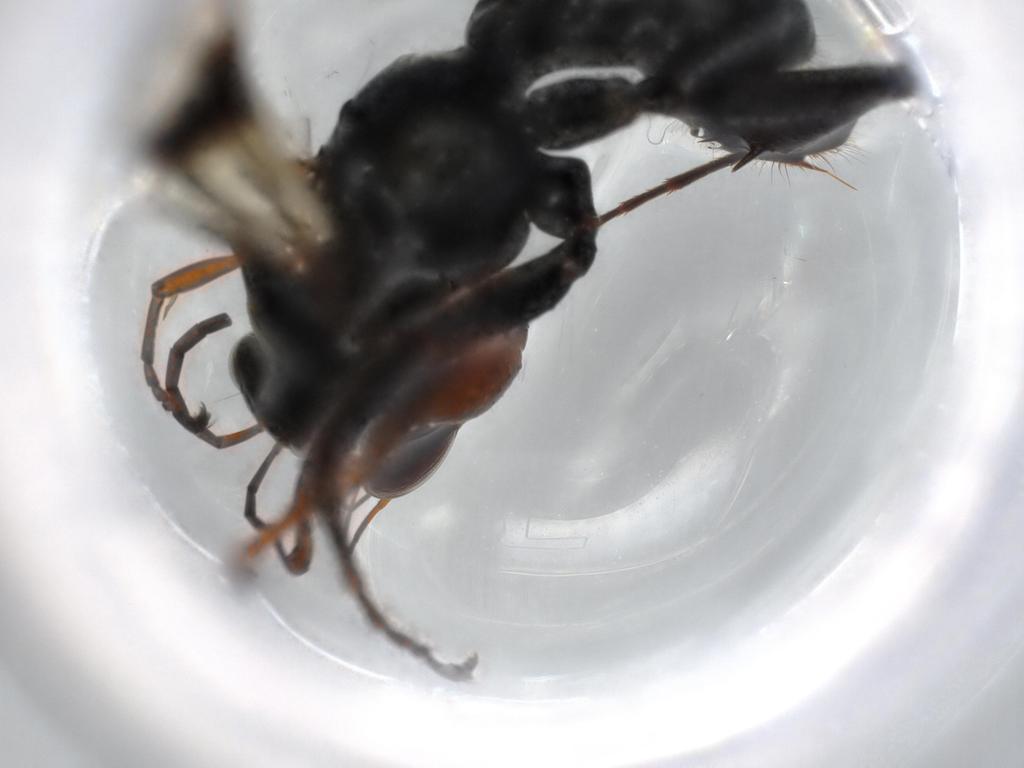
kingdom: Animalia
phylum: Arthropoda
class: Insecta
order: Hymenoptera
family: Pompilidae
